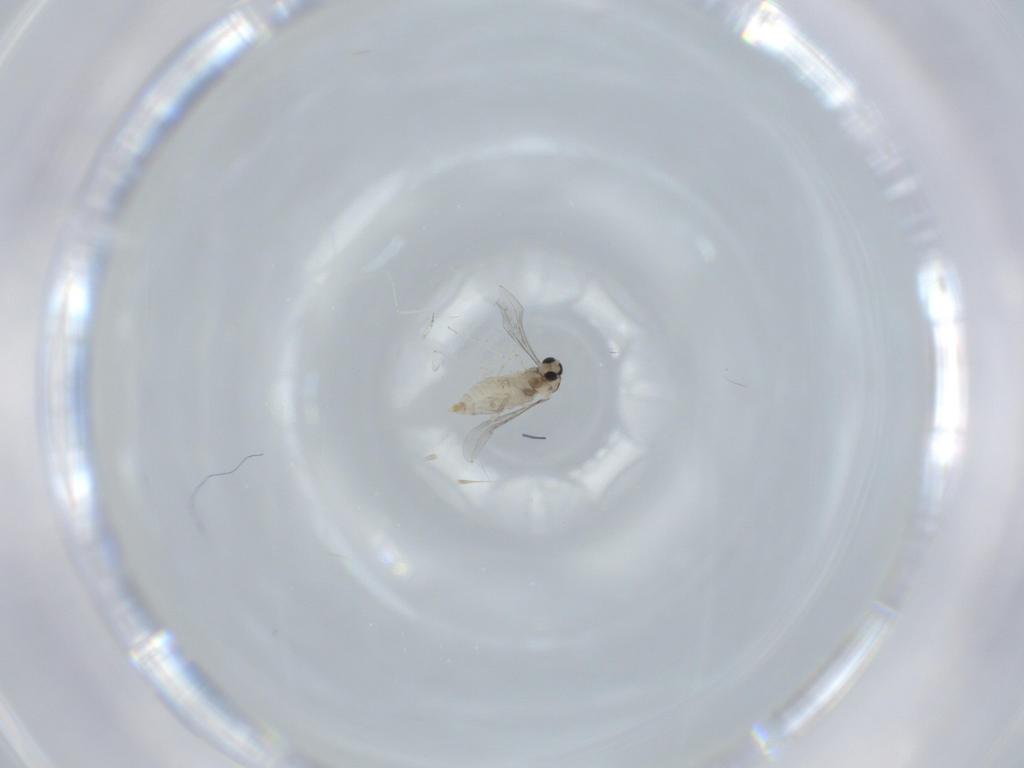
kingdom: Animalia
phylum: Arthropoda
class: Insecta
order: Diptera
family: Cecidomyiidae
